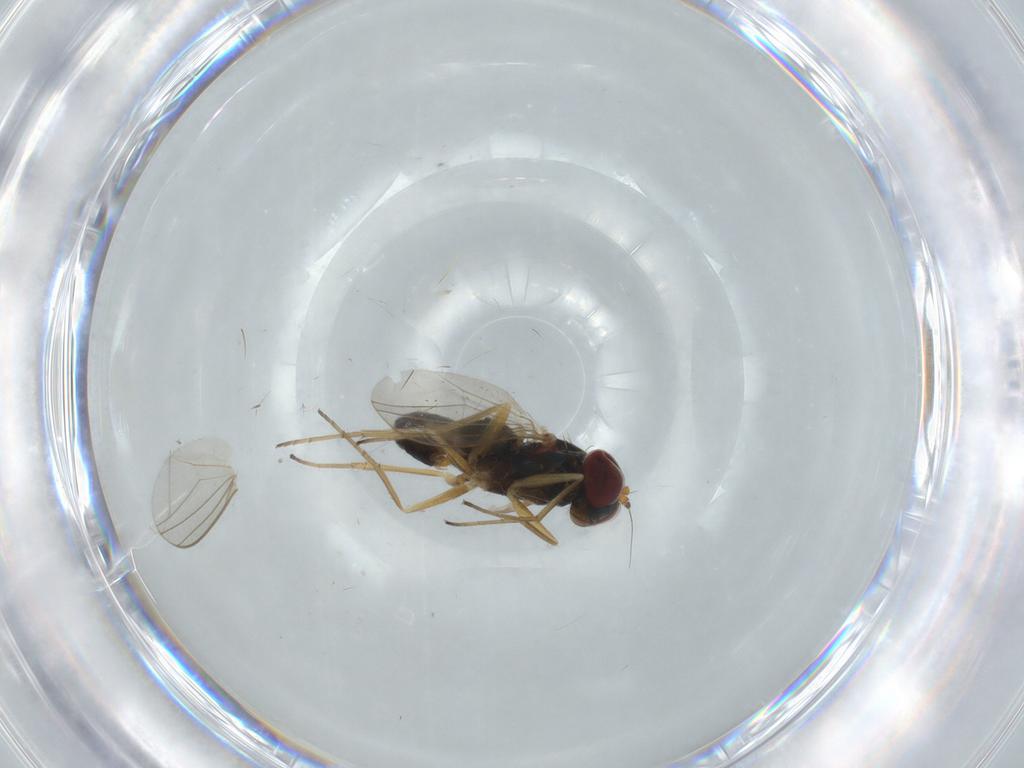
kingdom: Animalia
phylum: Arthropoda
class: Insecta
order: Diptera
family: Dolichopodidae
